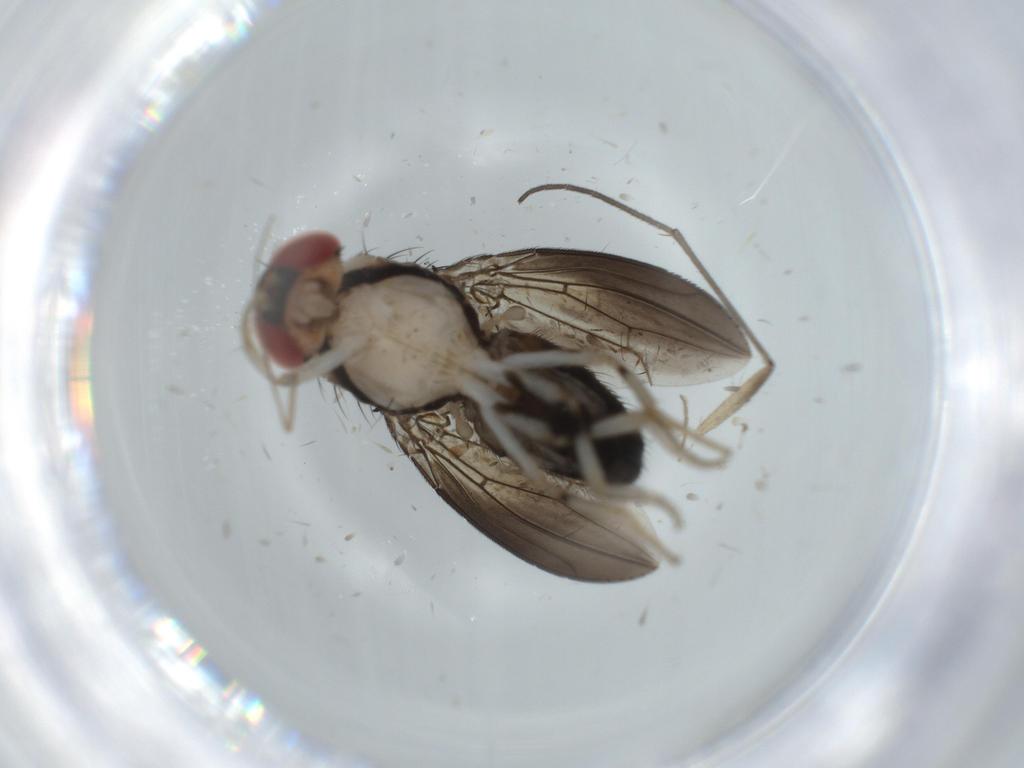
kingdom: Animalia
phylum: Arthropoda
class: Insecta
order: Diptera
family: Sciaridae
